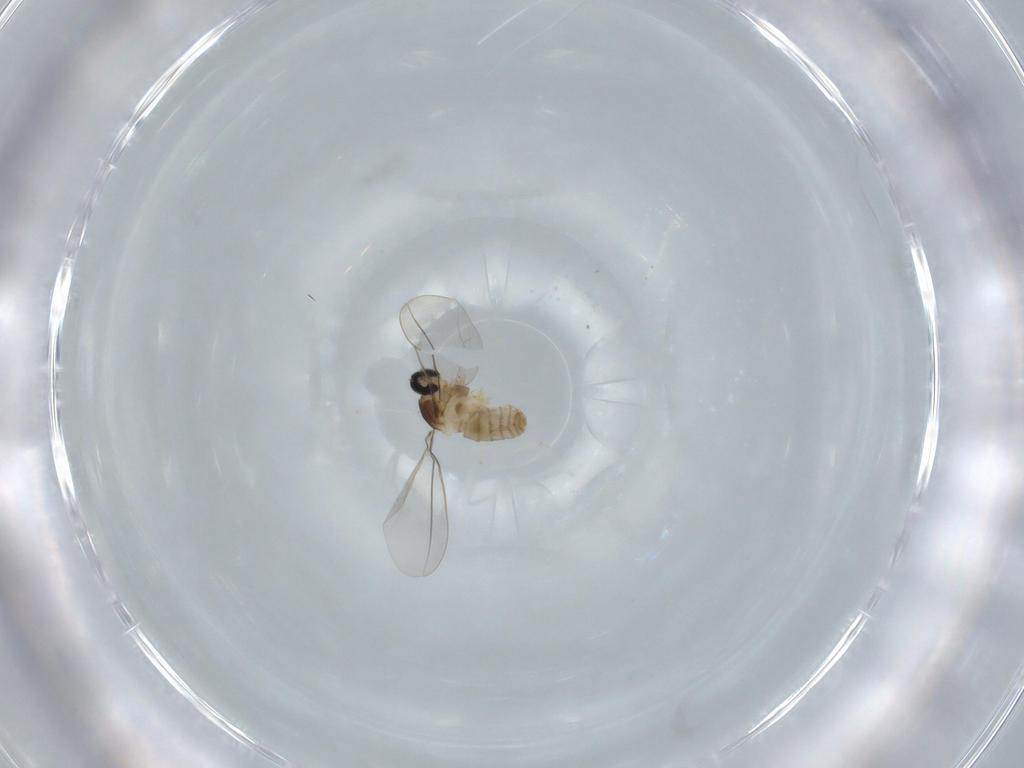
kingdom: Animalia
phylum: Arthropoda
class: Insecta
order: Diptera
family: Cecidomyiidae
